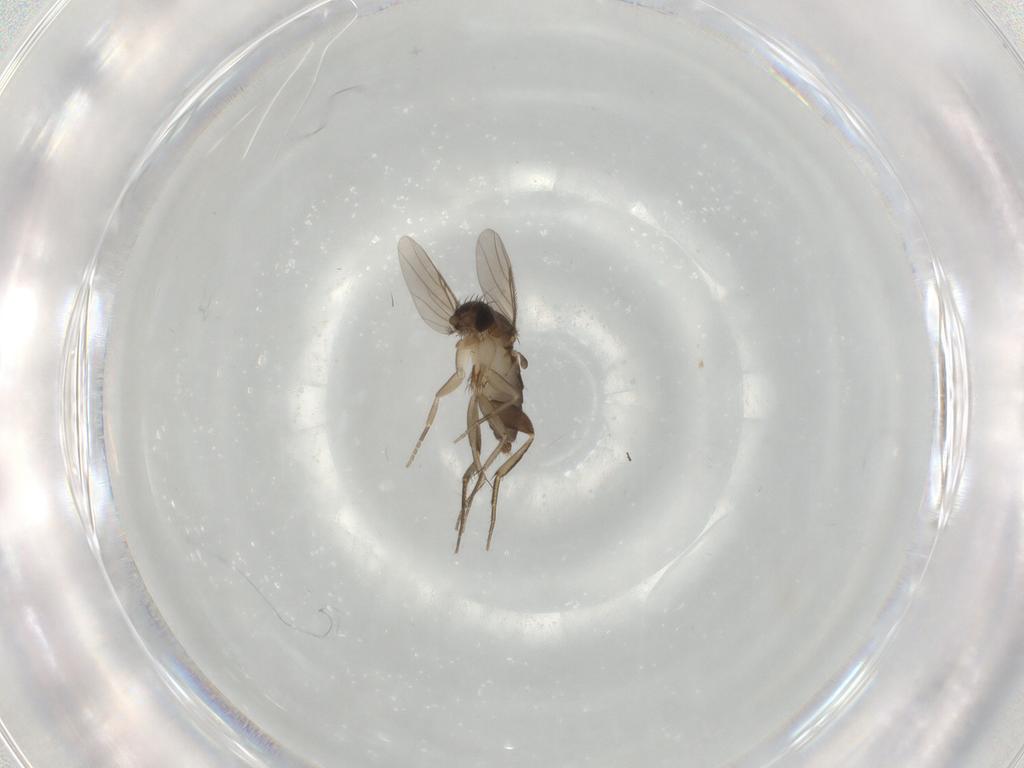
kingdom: Animalia
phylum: Arthropoda
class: Insecta
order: Diptera
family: Phoridae
